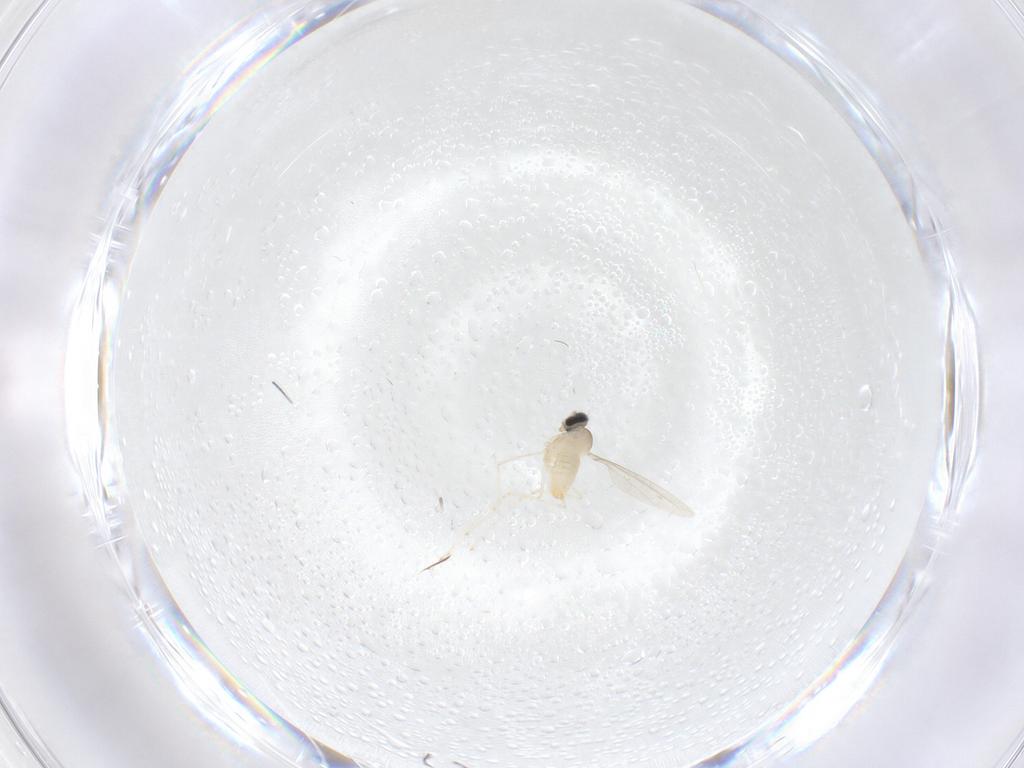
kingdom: Animalia
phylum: Arthropoda
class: Insecta
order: Diptera
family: Cecidomyiidae
